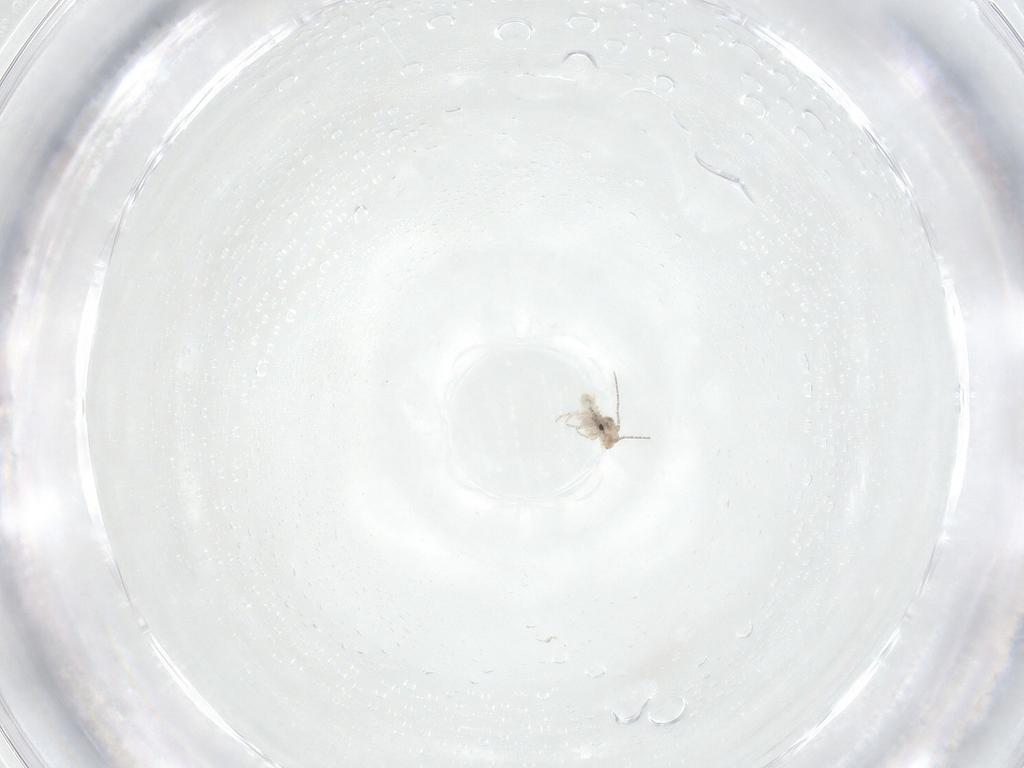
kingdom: Animalia
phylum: Arthropoda
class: Insecta
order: Psocodea
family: Lepidopsocidae
